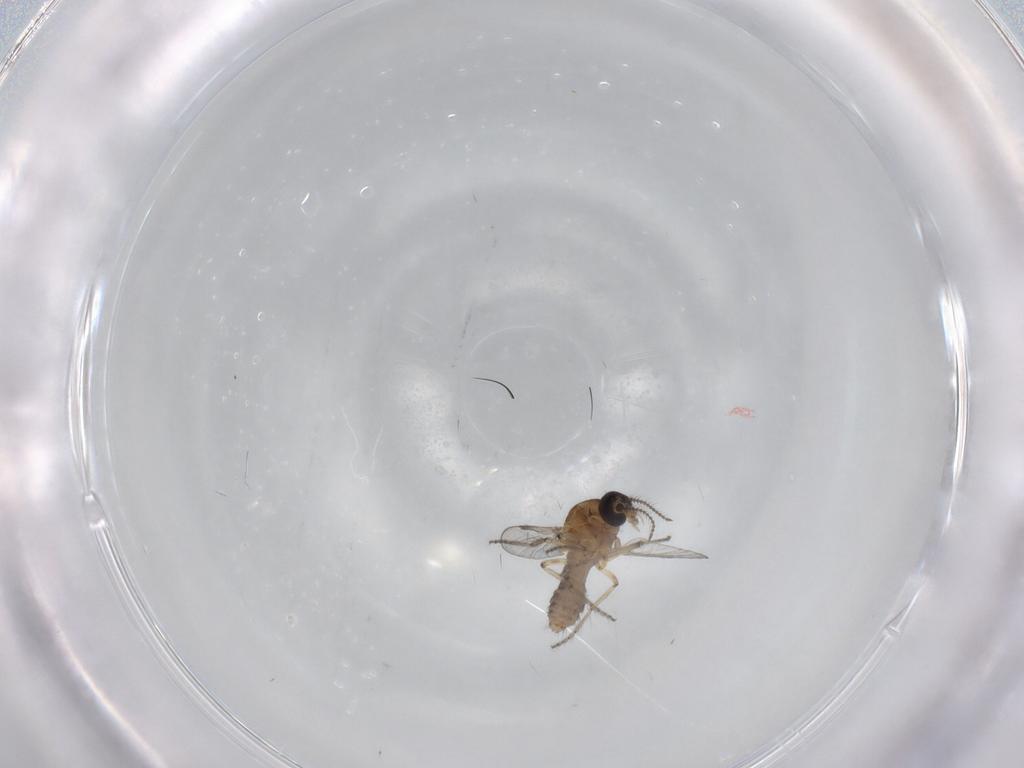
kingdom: Animalia
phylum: Arthropoda
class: Insecta
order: Diptera
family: Ceratopogonidae
